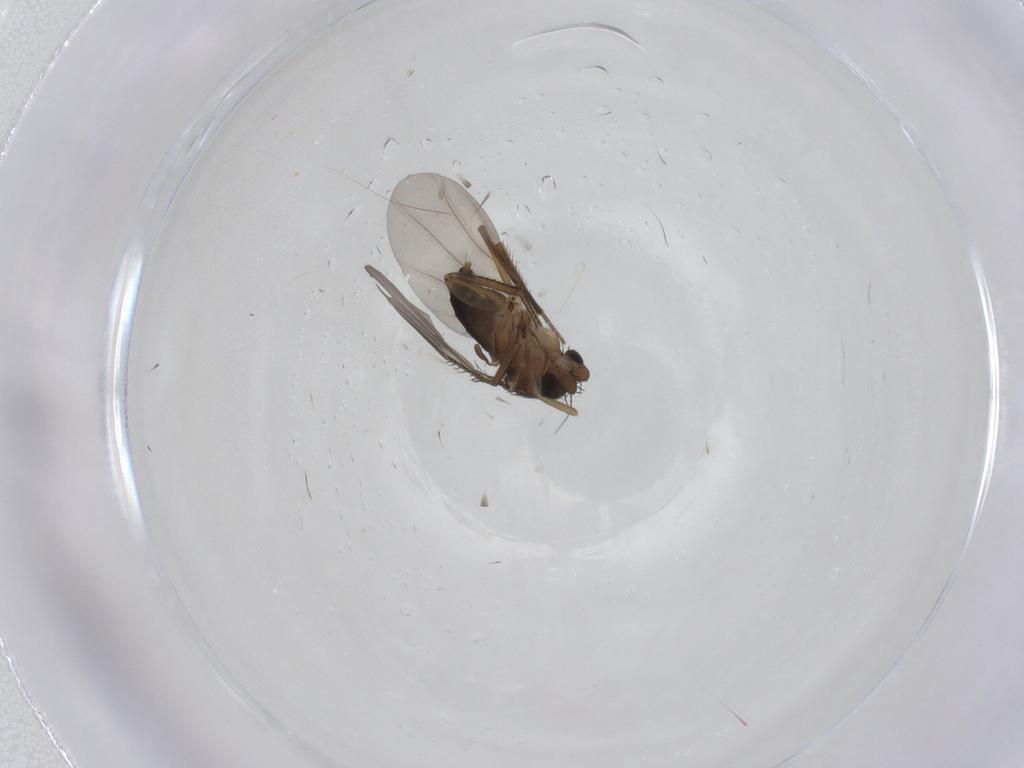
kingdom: Animalia
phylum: Arthropoda
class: Insecta
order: Diptera
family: Phoridae
